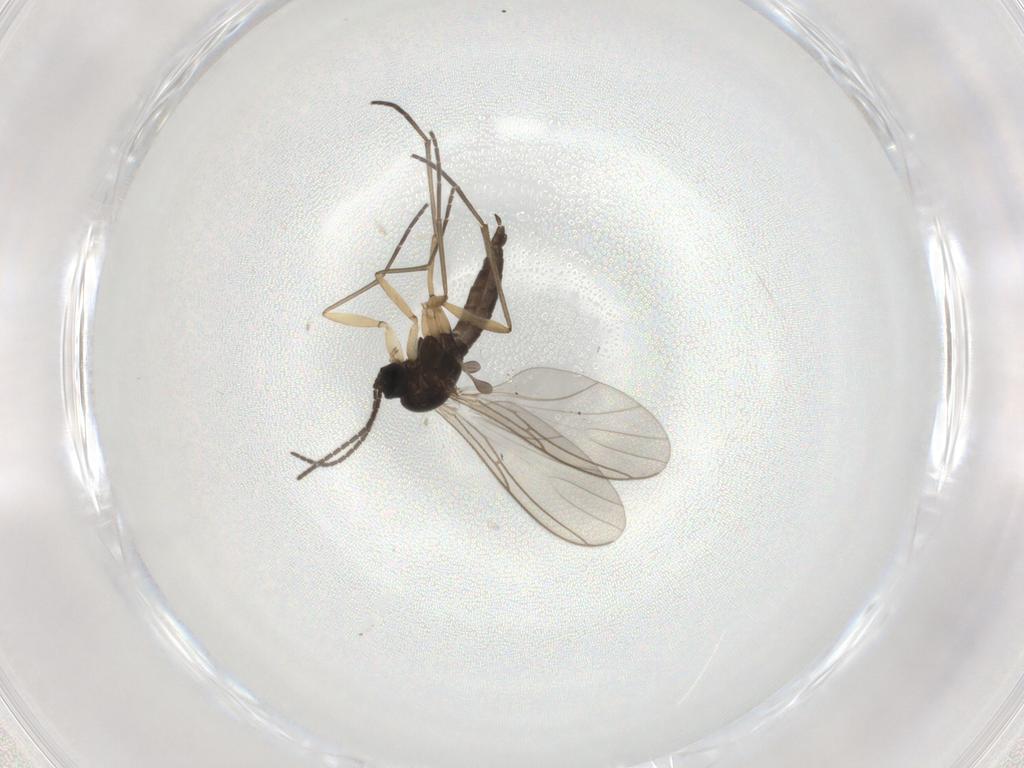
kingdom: Animalia
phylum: Arthropoda
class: Insecta
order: Diptera
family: Sciaridae
